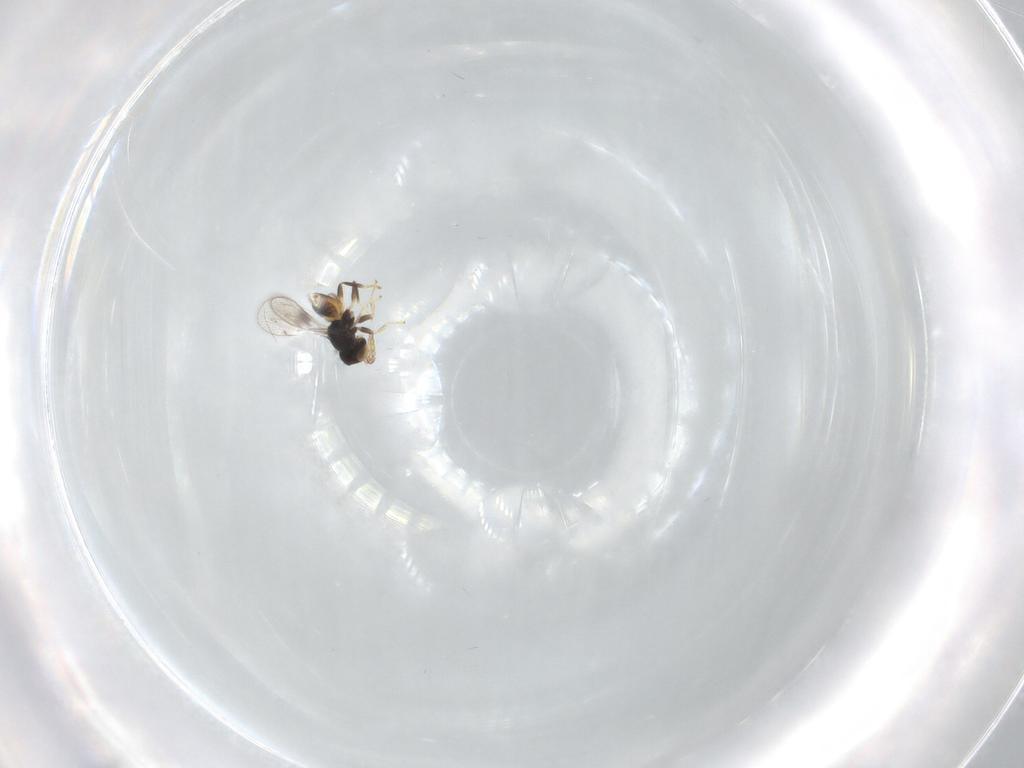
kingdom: Animalia
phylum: Arthropoda
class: Insecta
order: Hymenoptera
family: Eulophidae
